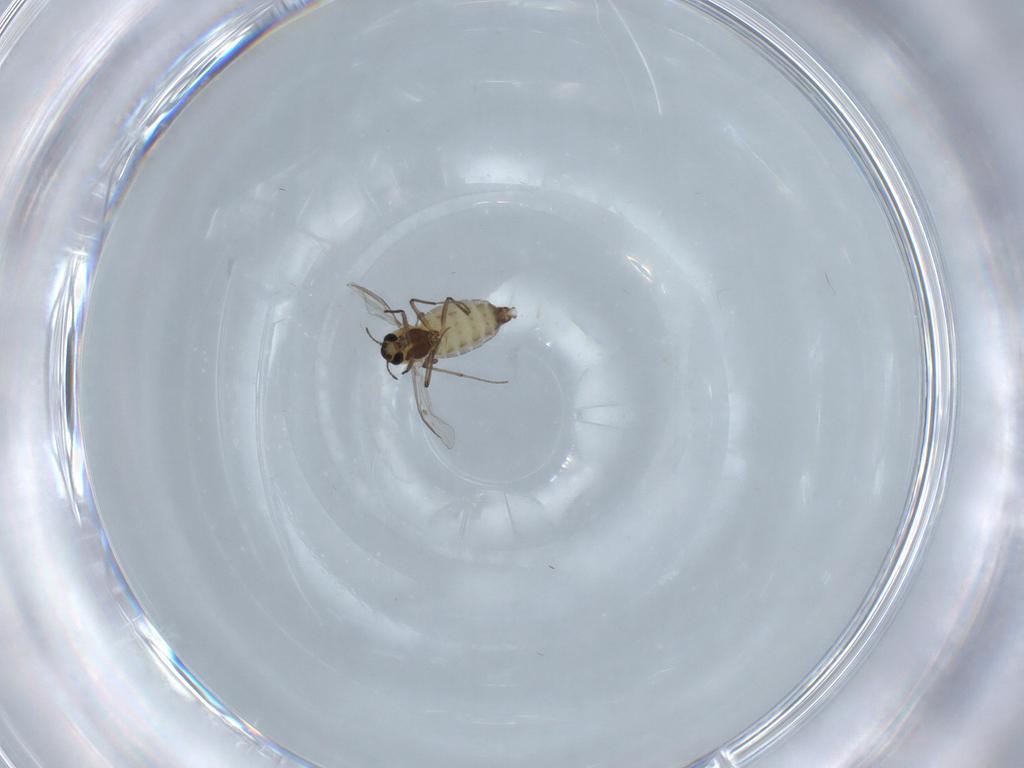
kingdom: Animalia
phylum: Arthropoda
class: Insecta
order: Diptera
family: Chironomidae
